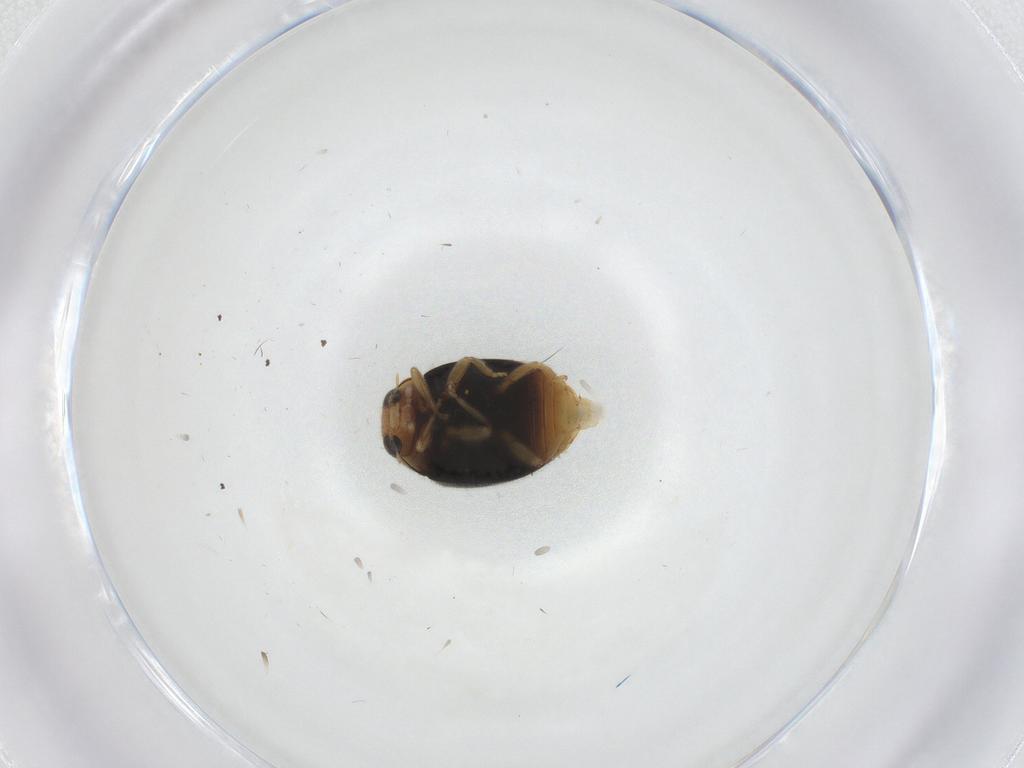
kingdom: Animalia
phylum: Arthropoda
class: Insecta
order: Coleoptera
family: Coccinellidae
